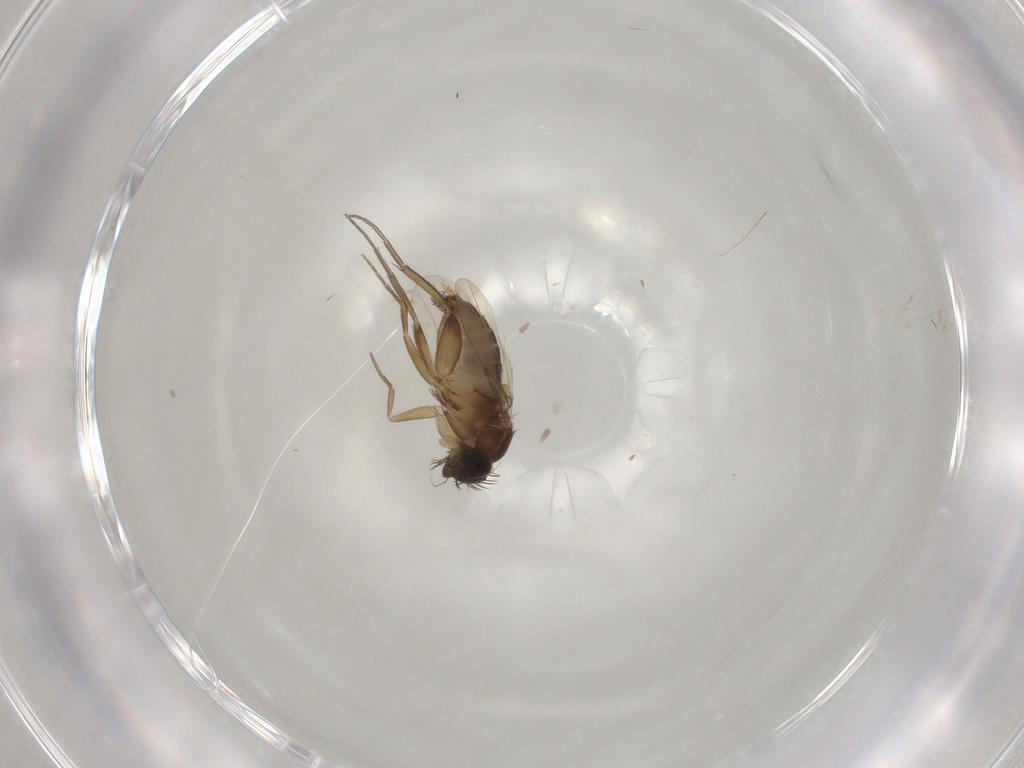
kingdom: Animalia
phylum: Arthropoda
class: Insecta
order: Diptera
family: Phoridae
